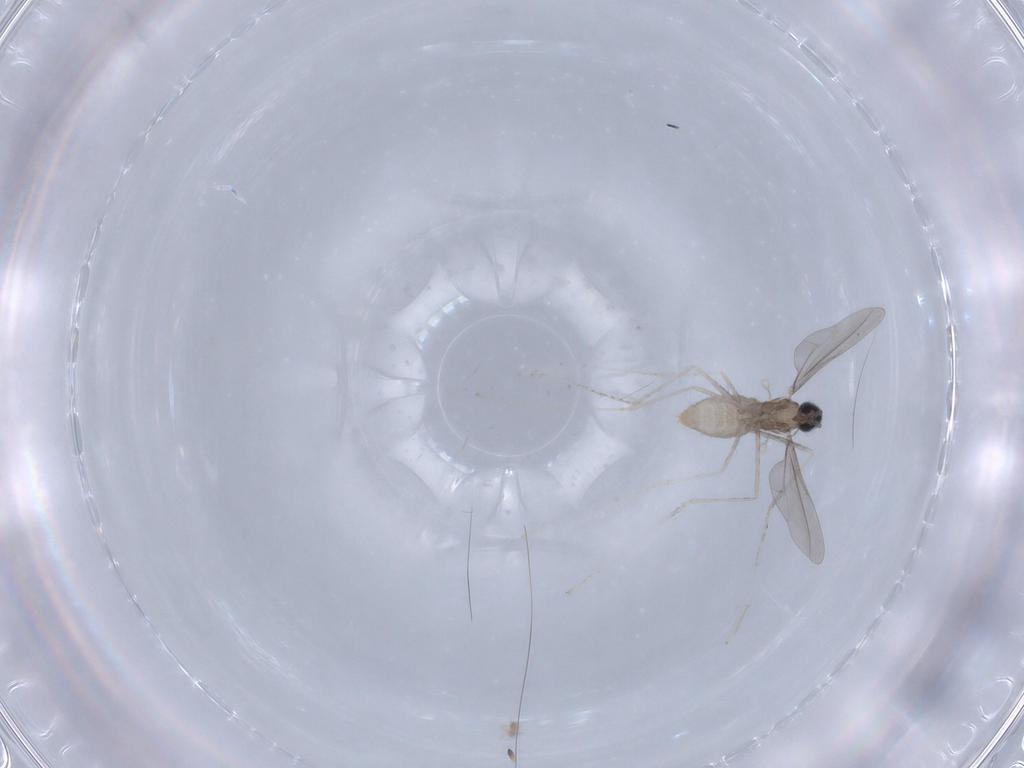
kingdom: Animalia
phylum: Arthropoda
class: Insecta
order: Diptera
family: Cecidomyiidae
